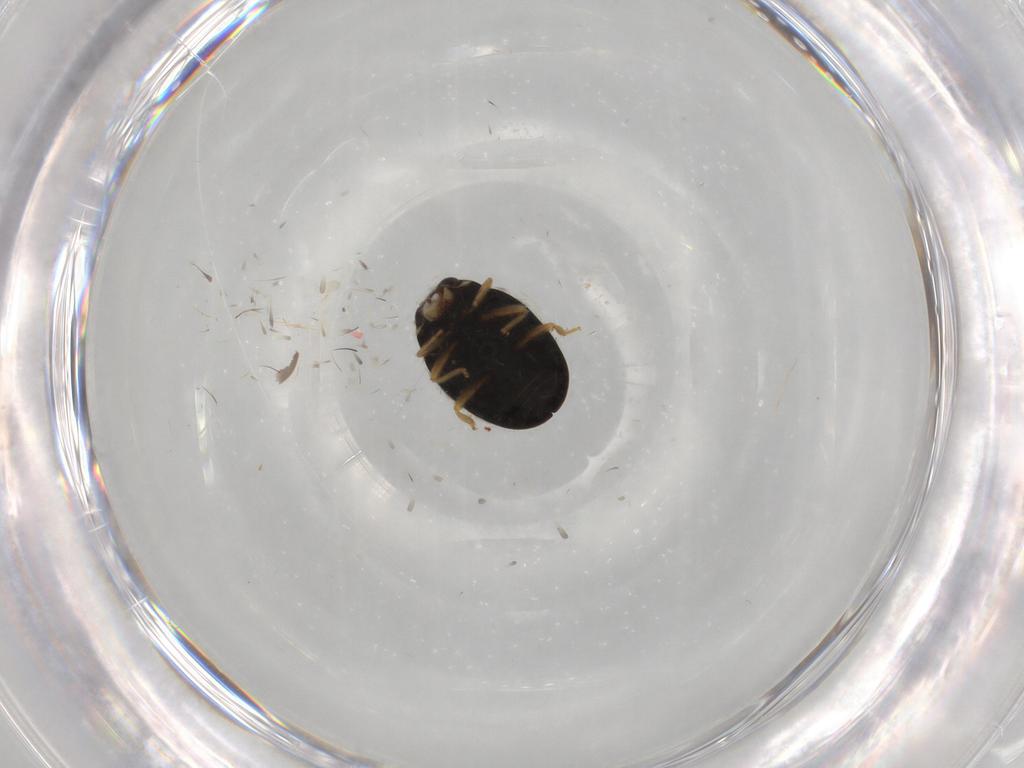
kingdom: Animalia
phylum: Arthropoda
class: Insecta
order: Coleoptera
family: Coccinellidae
